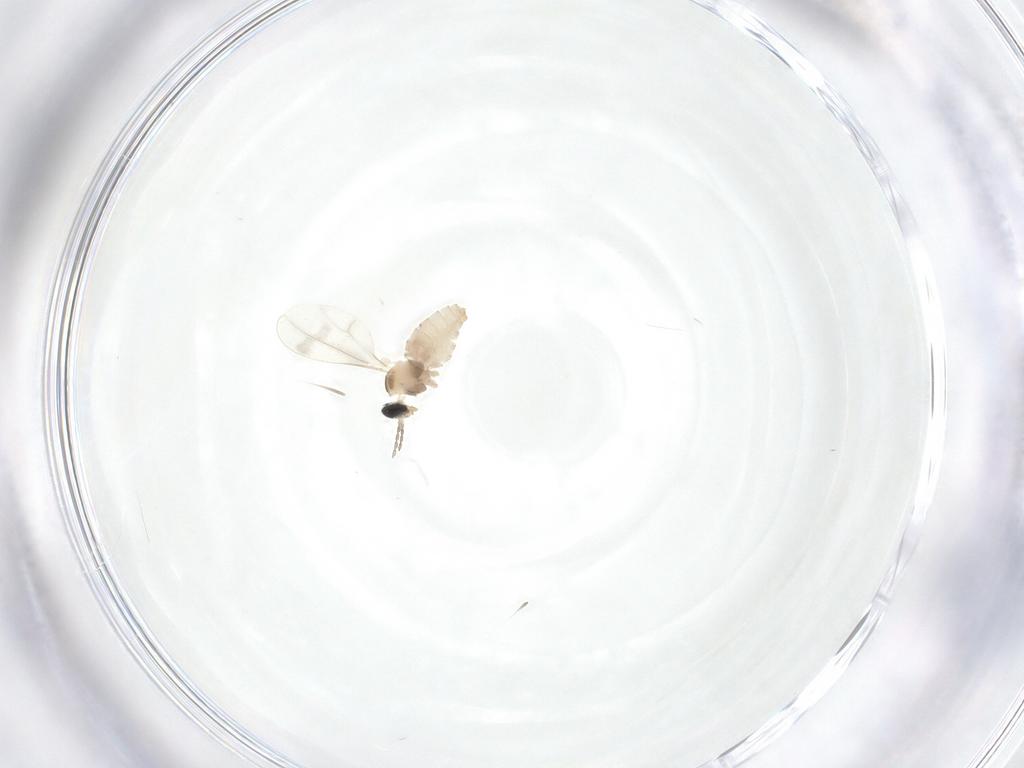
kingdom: Animalia
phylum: Arthropoda
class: Insecta
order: Diptera
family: Cecidomyiidae
